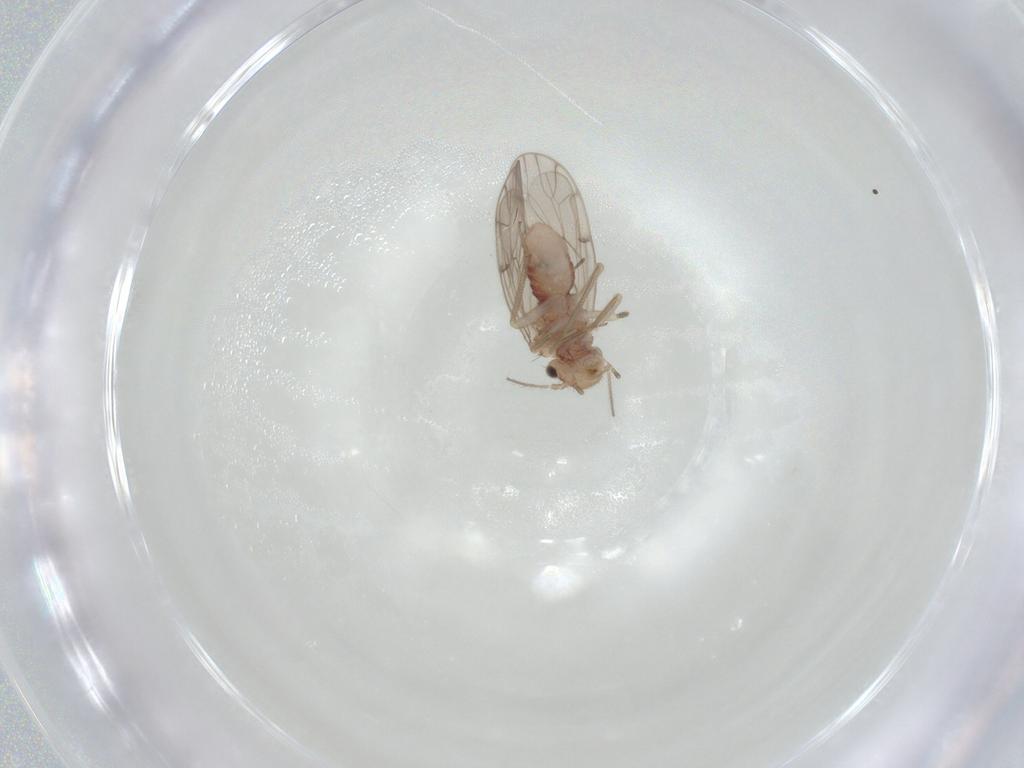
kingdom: Animalia
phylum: Arthropoda
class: Insecta
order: Psocodea
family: Ectopsocidae
